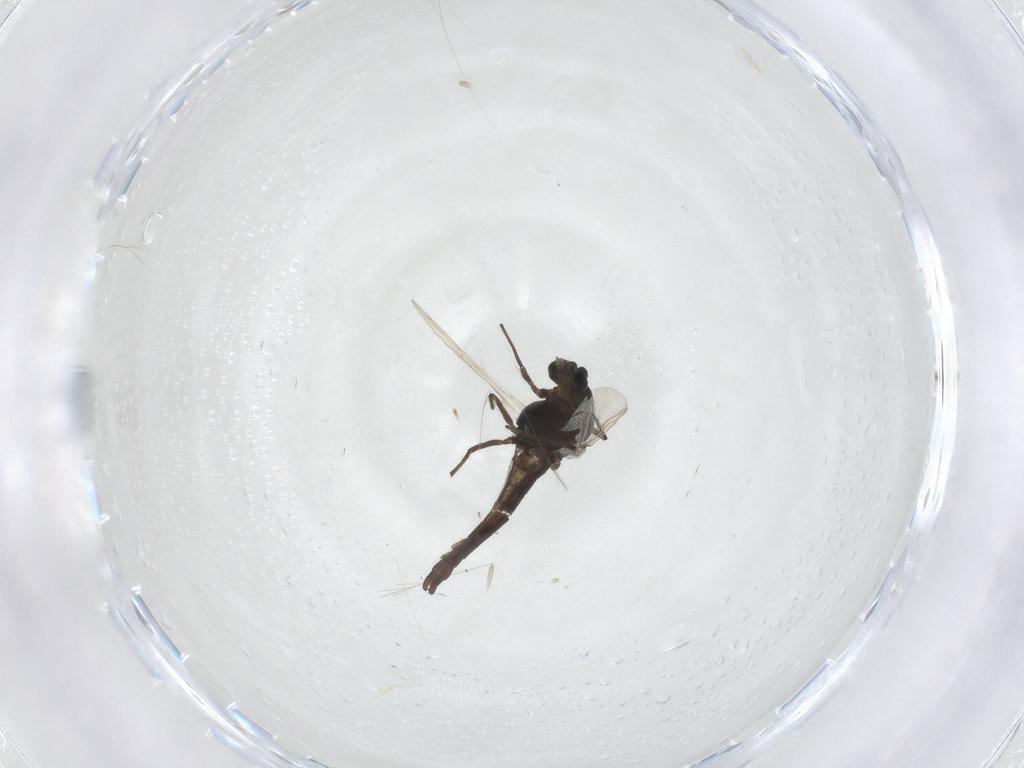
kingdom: Animalia
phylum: Arthropoda
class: Insecta
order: Diptera
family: Chironomidae
